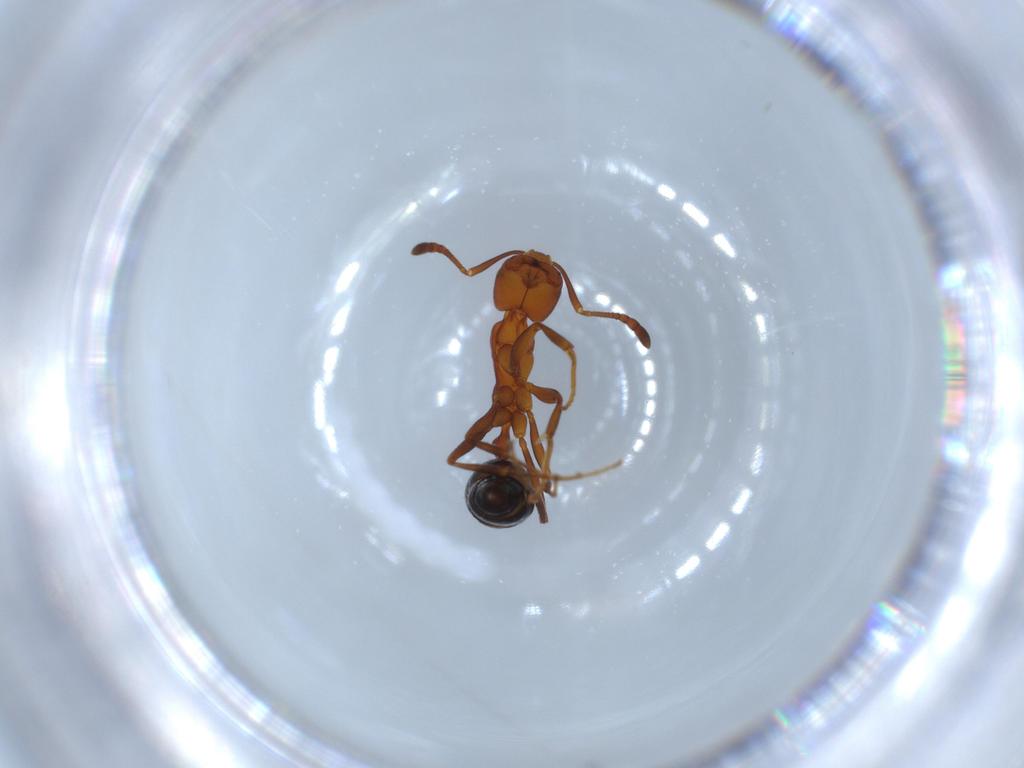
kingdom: Animalia
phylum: Arthropoda
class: Insecta
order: Hymenoptera
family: Formicidae
